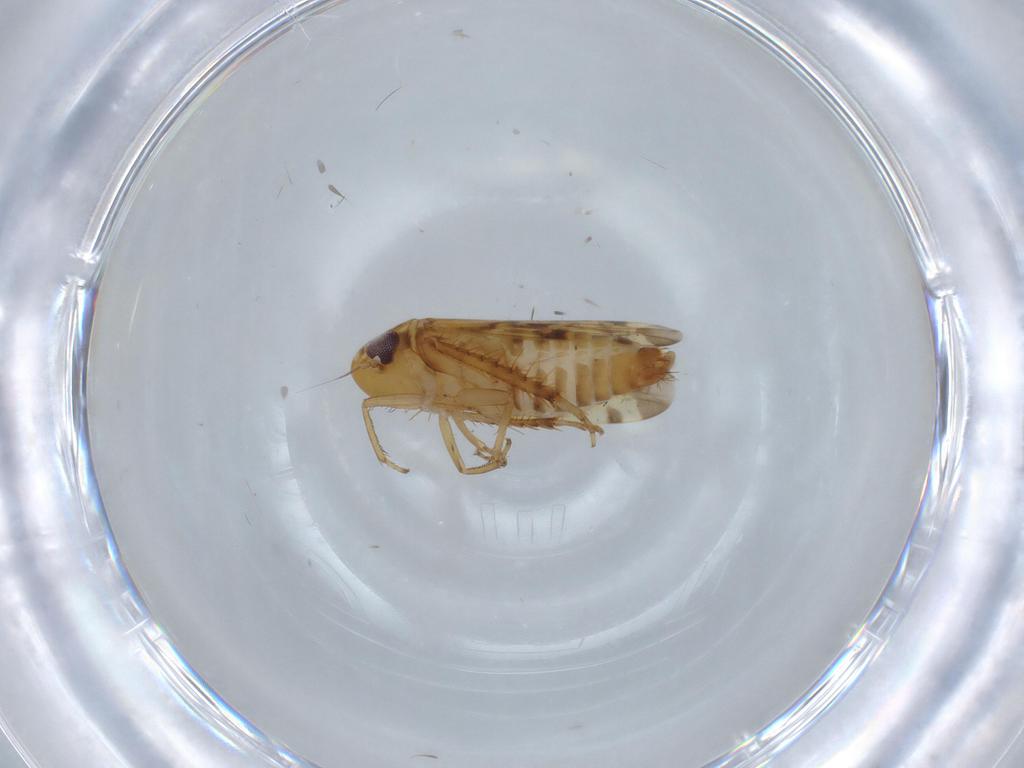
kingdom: Animalia
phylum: Arthropoda
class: Insecta
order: Hemiptera
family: Cicadellidae
